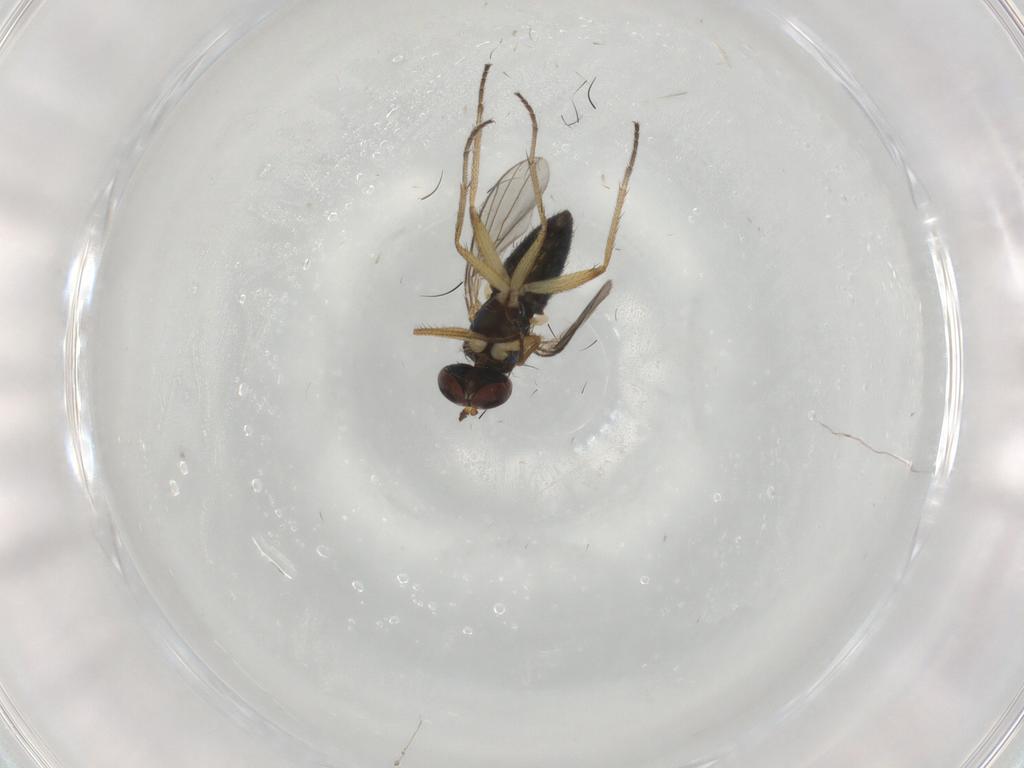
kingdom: Animalia
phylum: Arthropoda
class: Insecta
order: Diptera
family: Dolichopodidae
